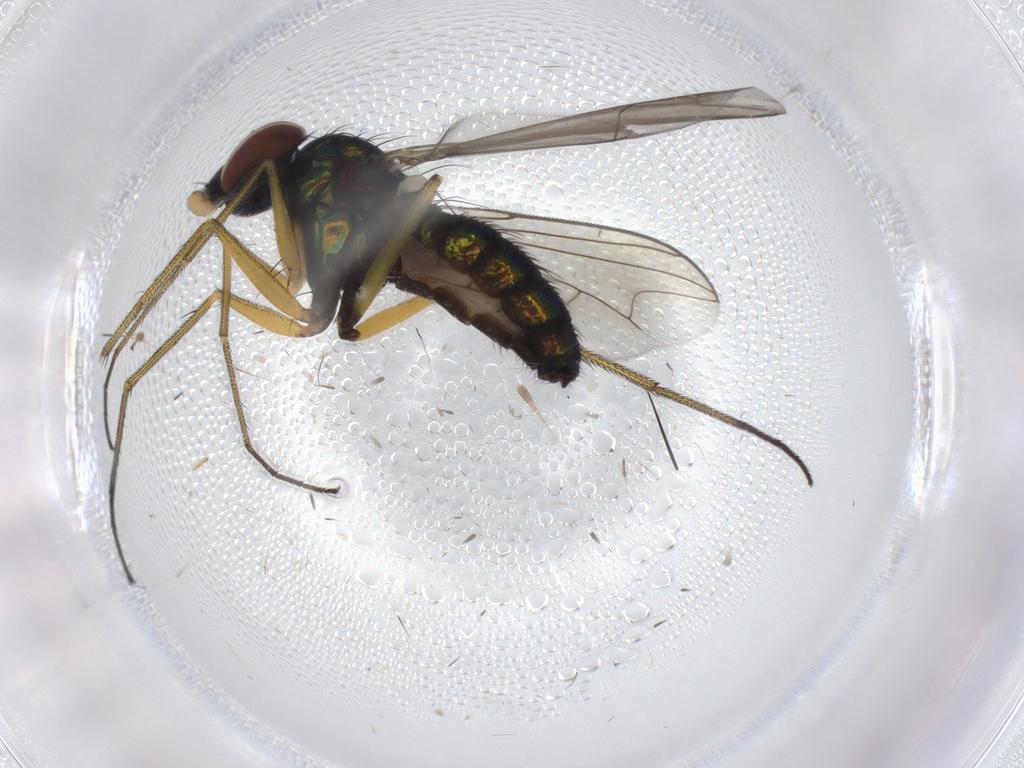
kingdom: Animalia
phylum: Arthropoda
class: Insecta
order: Diptera
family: Dolichopodidae
